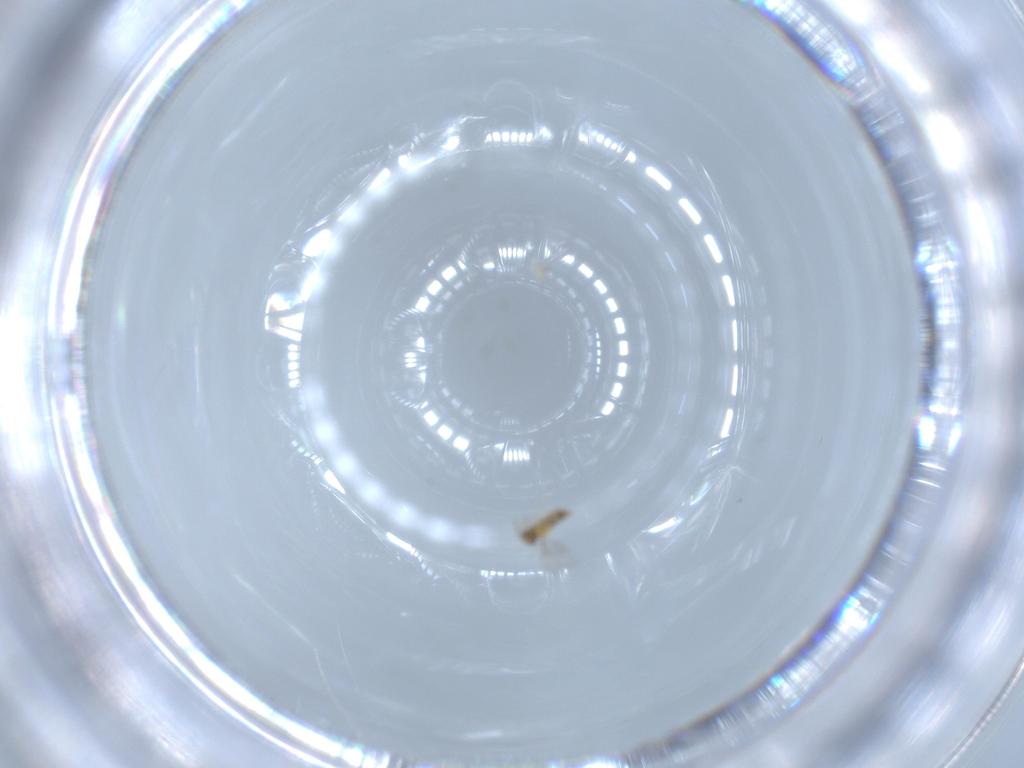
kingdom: Animalia
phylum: Arthropoda
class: Insecta
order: Hymenoptera
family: Aphelinidae
